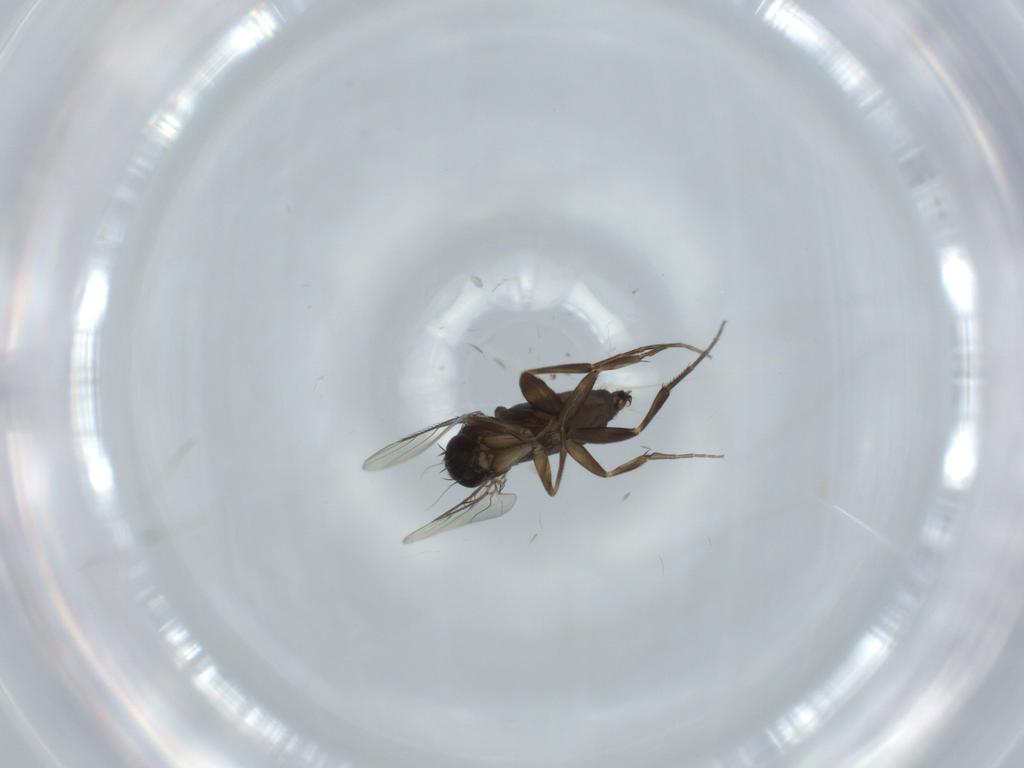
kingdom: Animalia
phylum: Arthropoda
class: Insecta
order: Diptera
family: Phoridae
